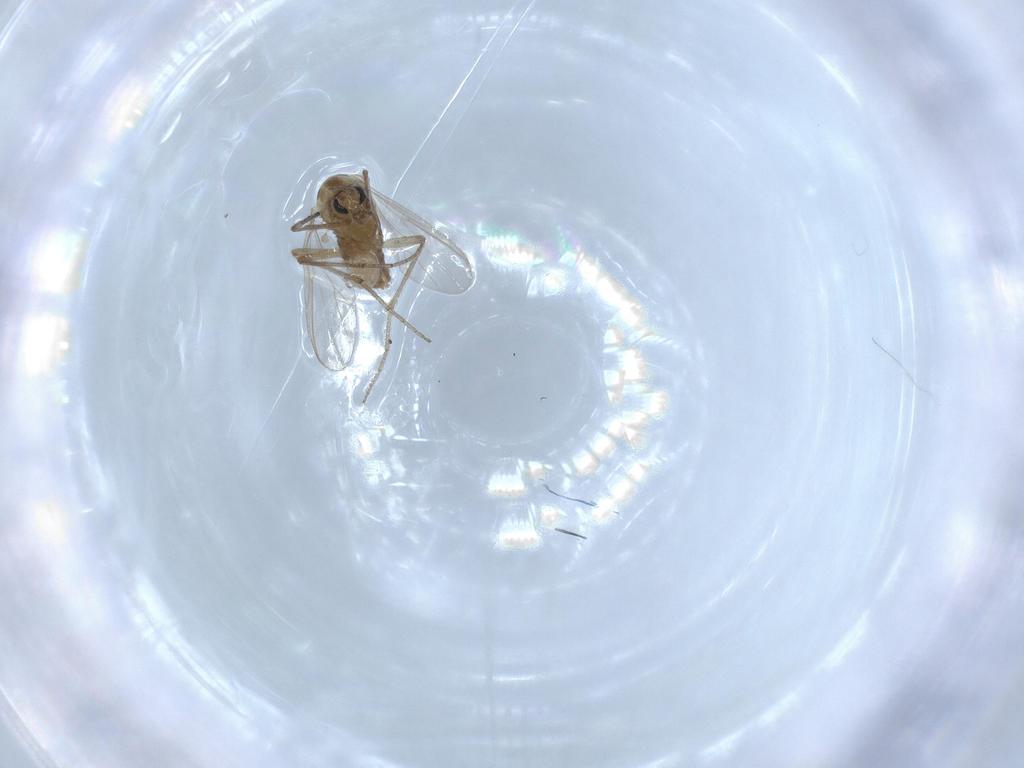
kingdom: Animalia
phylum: Arthropoda
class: Insecta
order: Diptera
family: Chironomidae
